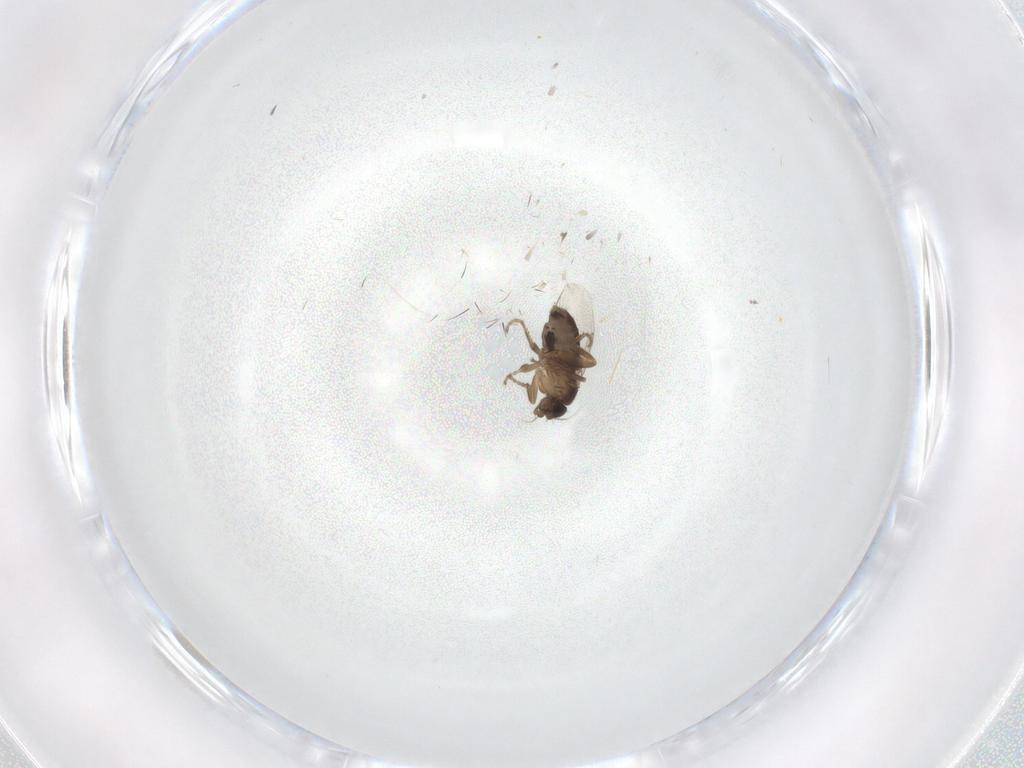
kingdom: Animalia
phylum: Arthropoda
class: Insecta
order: Diptera
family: Phoridae
